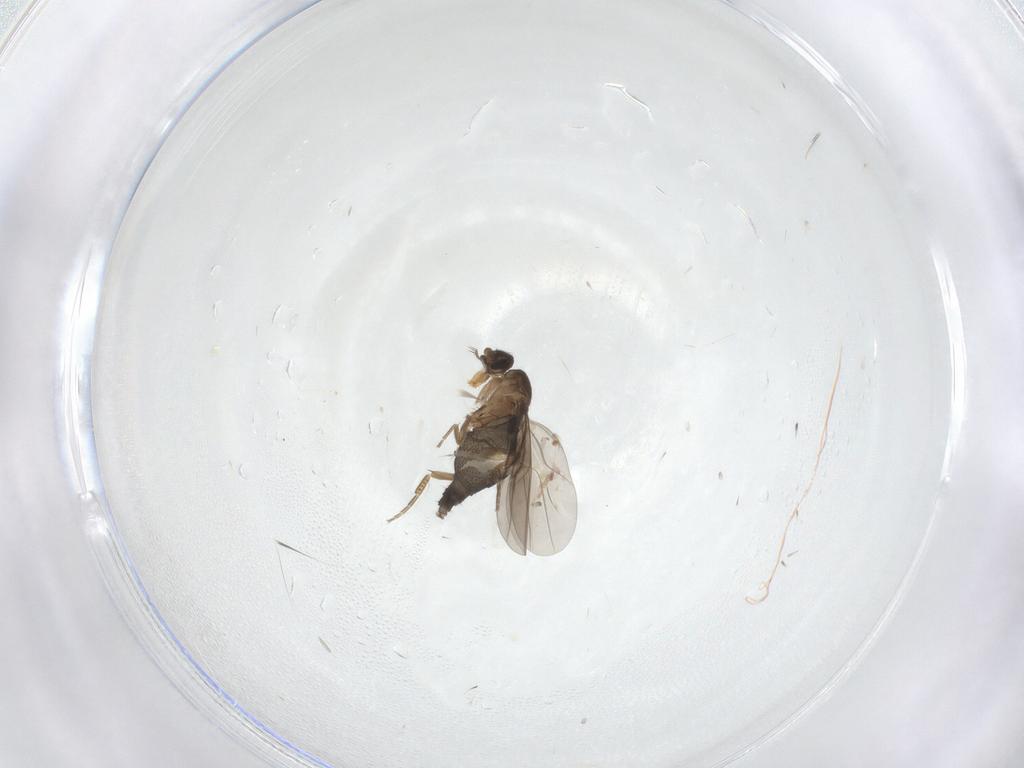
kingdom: Animalia
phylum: Arthropoda
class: Insecta
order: Diptera
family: Phoridae
